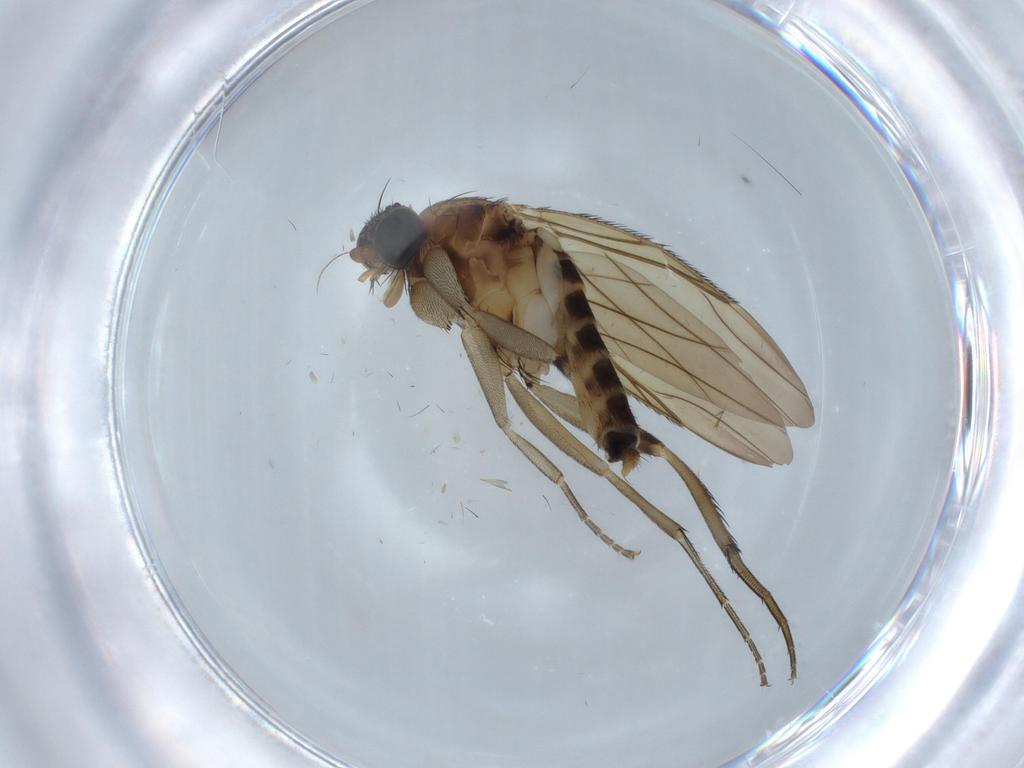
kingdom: Animalia
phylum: Arthropoda
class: Insecta
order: Diptera
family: Phoridae
